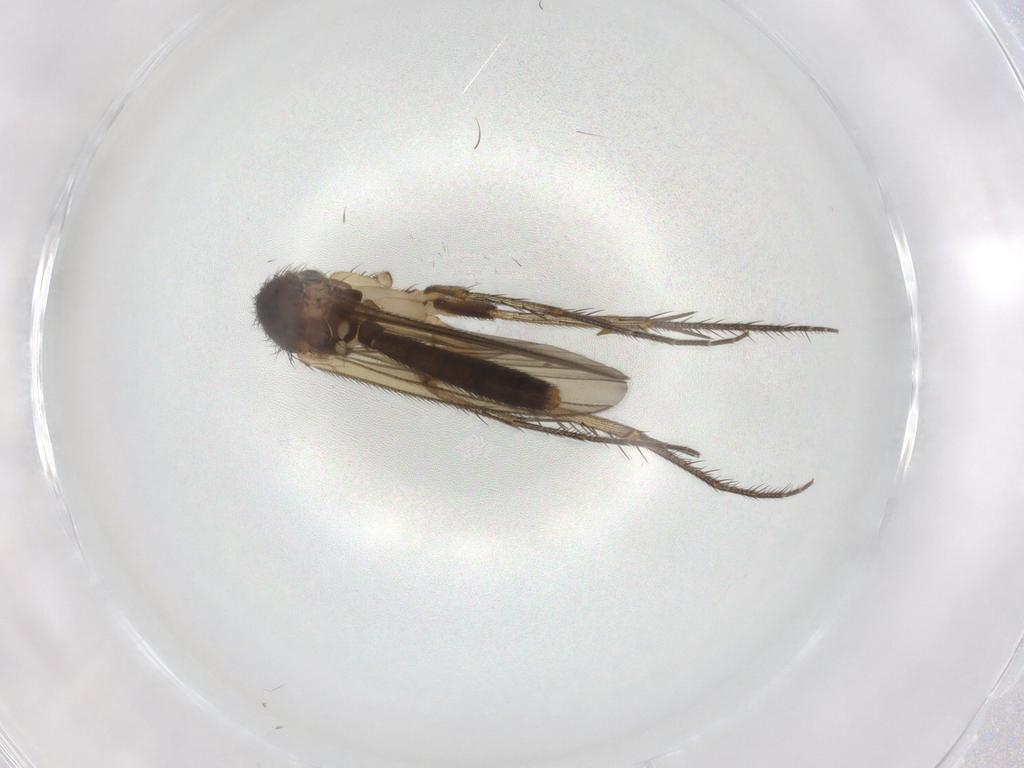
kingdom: Animalia
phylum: Arthropoda
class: Insecta
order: Diptera
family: Mycetophilidae
